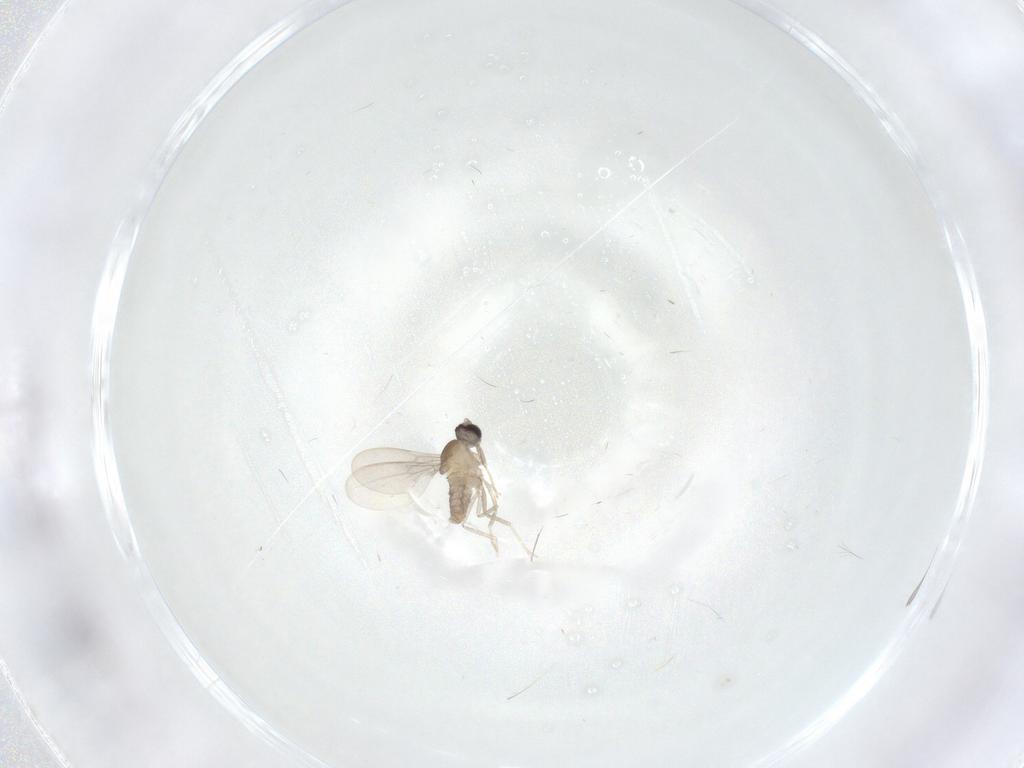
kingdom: Animalia
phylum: Arthropoda
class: Insecta
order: Diptera
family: Cecidomyiidae
